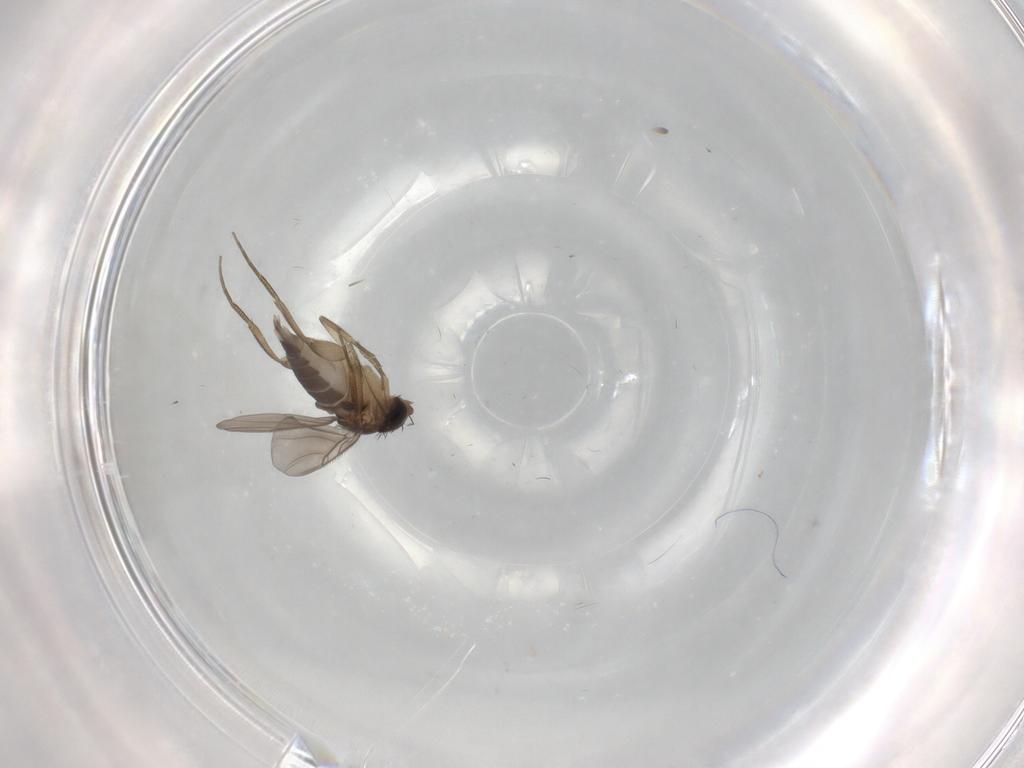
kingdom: Animalia
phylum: Arthropoda
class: Insecta
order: Diptera
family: Phoridae
